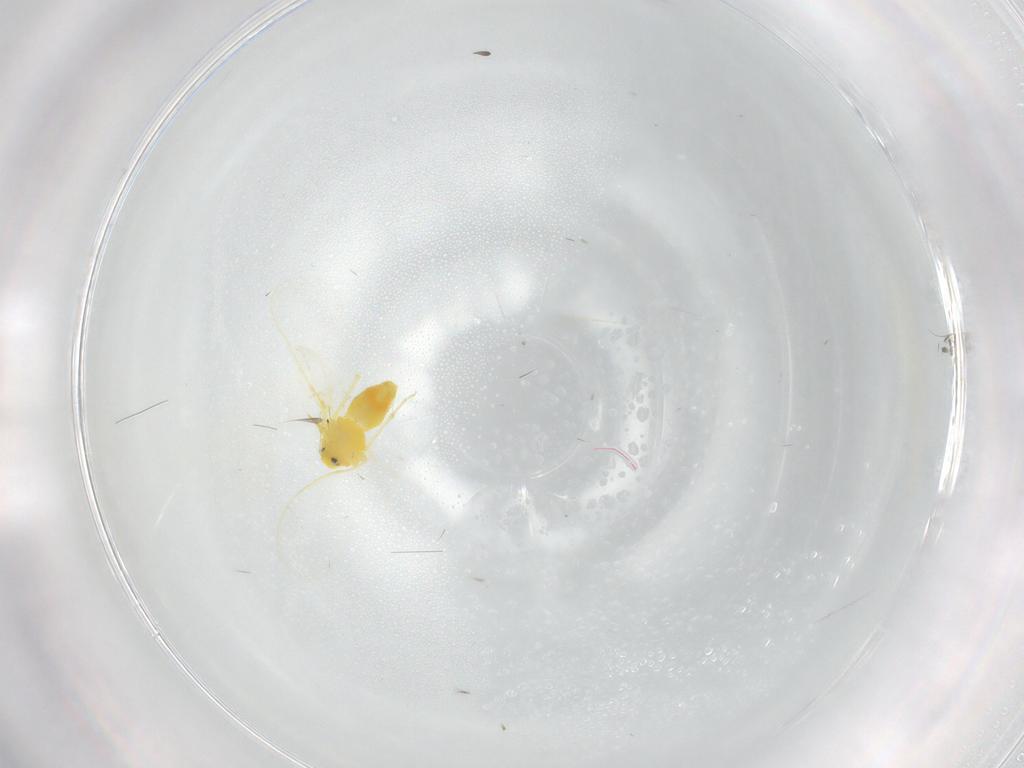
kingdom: Animalia
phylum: Arthropoda
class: Insecta
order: Hemiptera
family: Aleyrodidae
